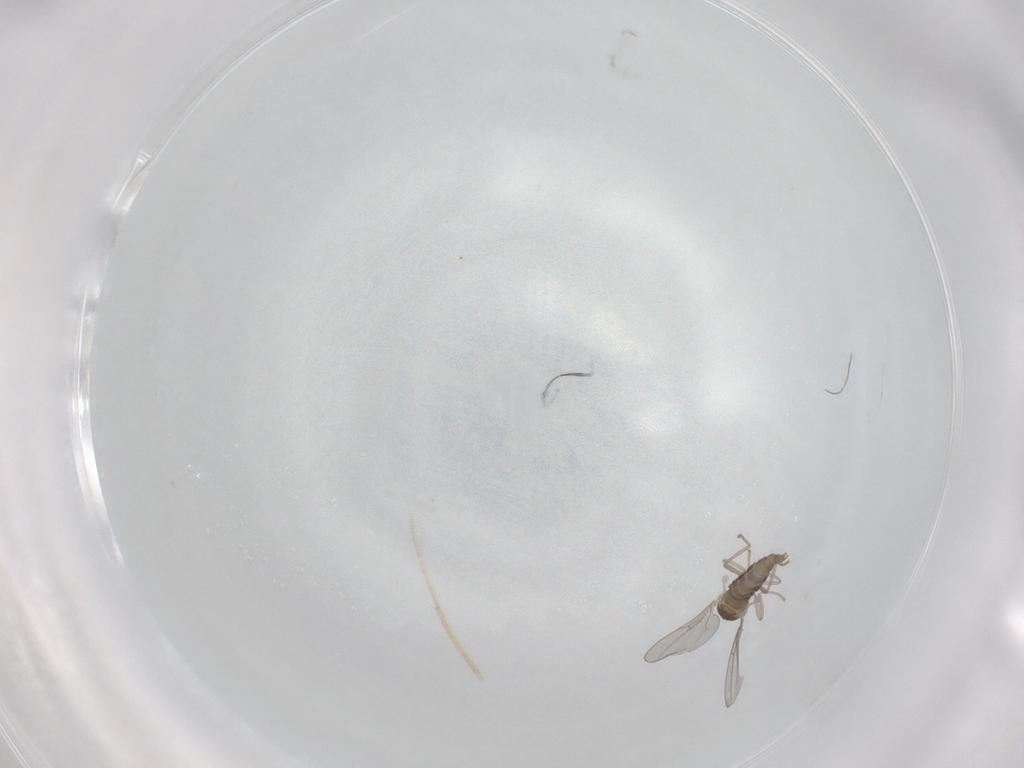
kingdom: Animalia
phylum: Arthropoda
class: Insecta
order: Diptera
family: Cecidomyiidae
